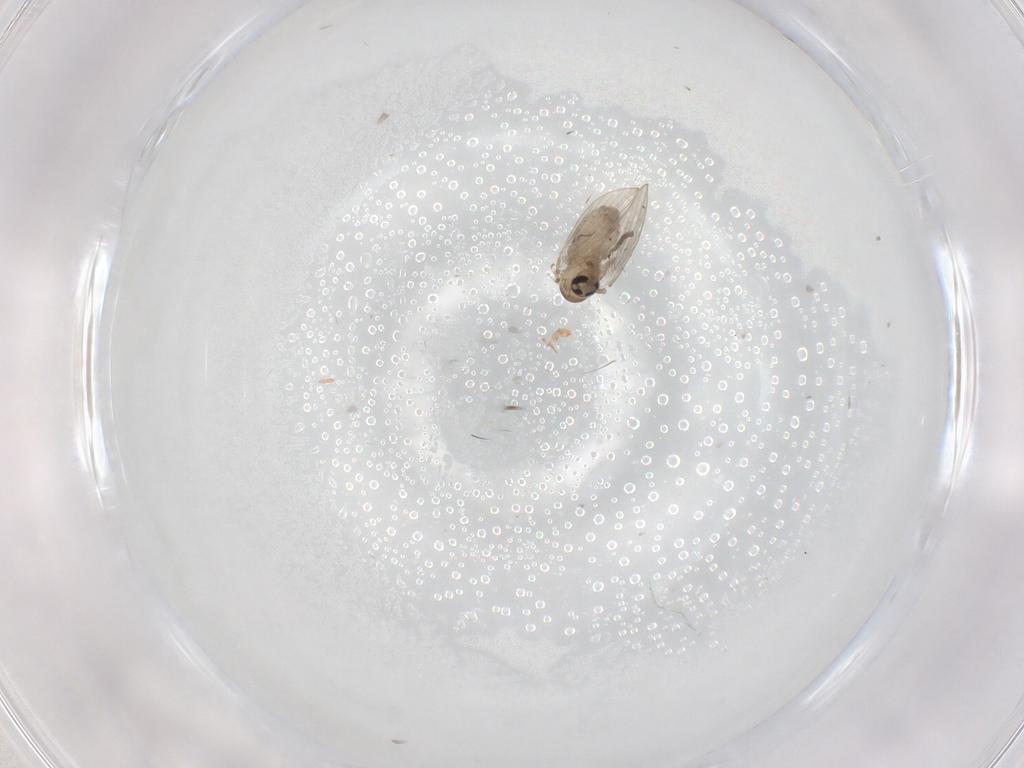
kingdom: Animalia
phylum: Arthropoda
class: Insecta
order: Diptera
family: Psychodidae
